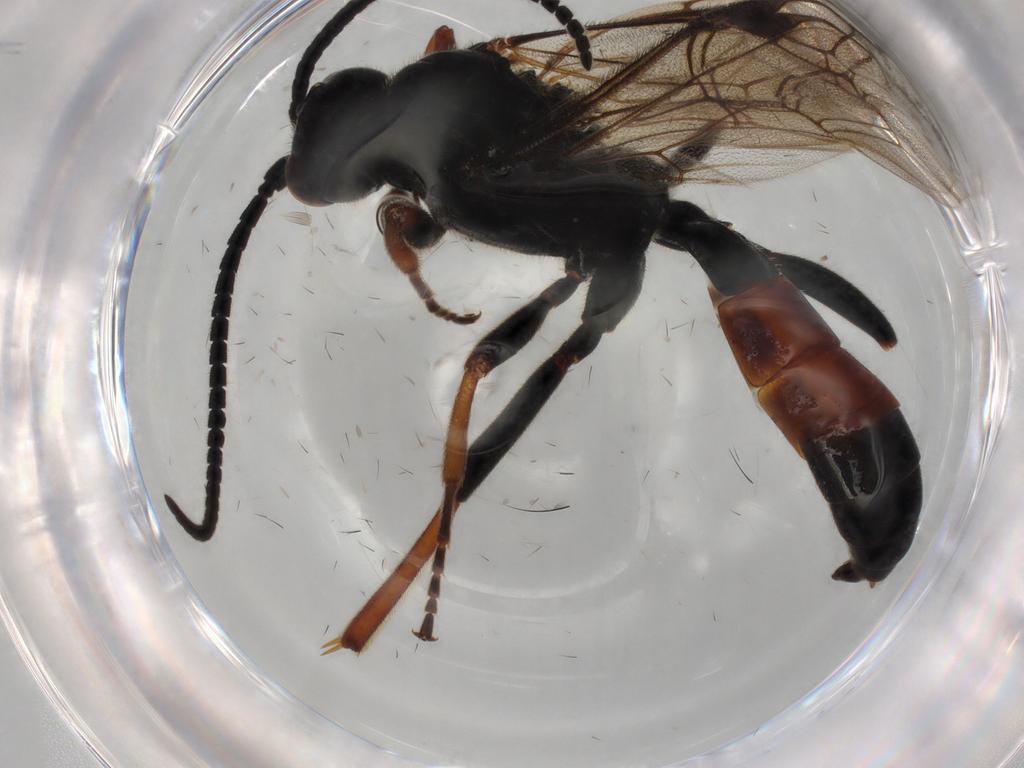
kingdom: Animalia
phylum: Arthropoda
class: Insecta
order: Hymenoptera
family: Ichneumonidae
